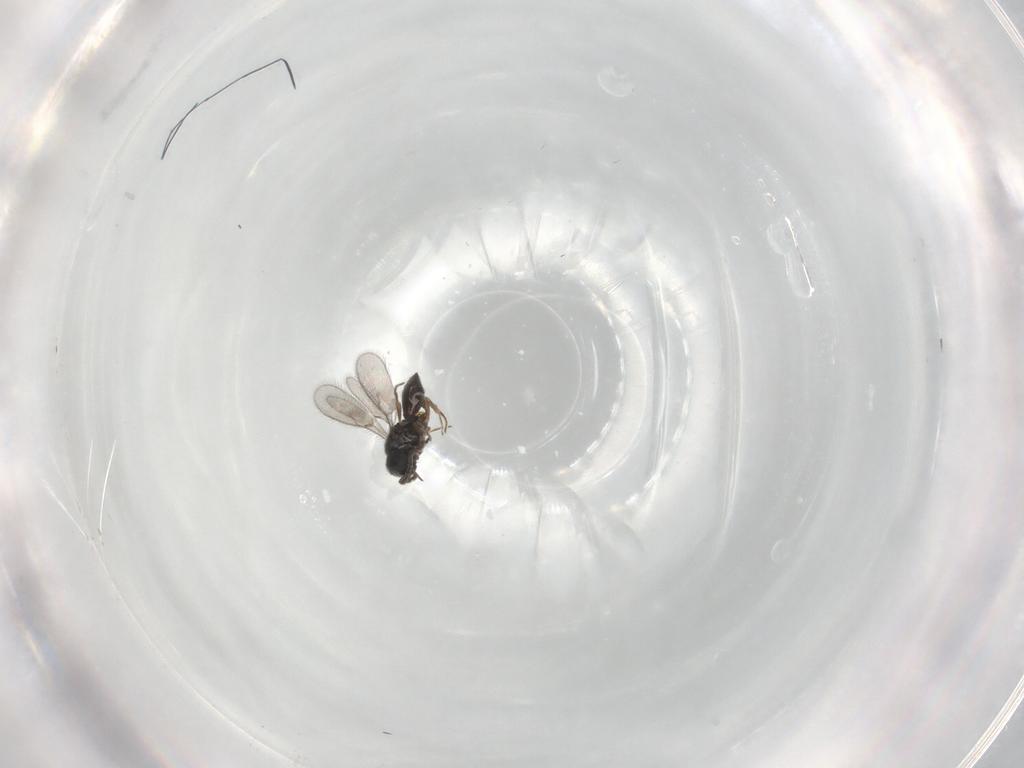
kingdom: Animalia
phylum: Arthropoda
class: Insecta
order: Hymenoptera
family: Scelionidae
